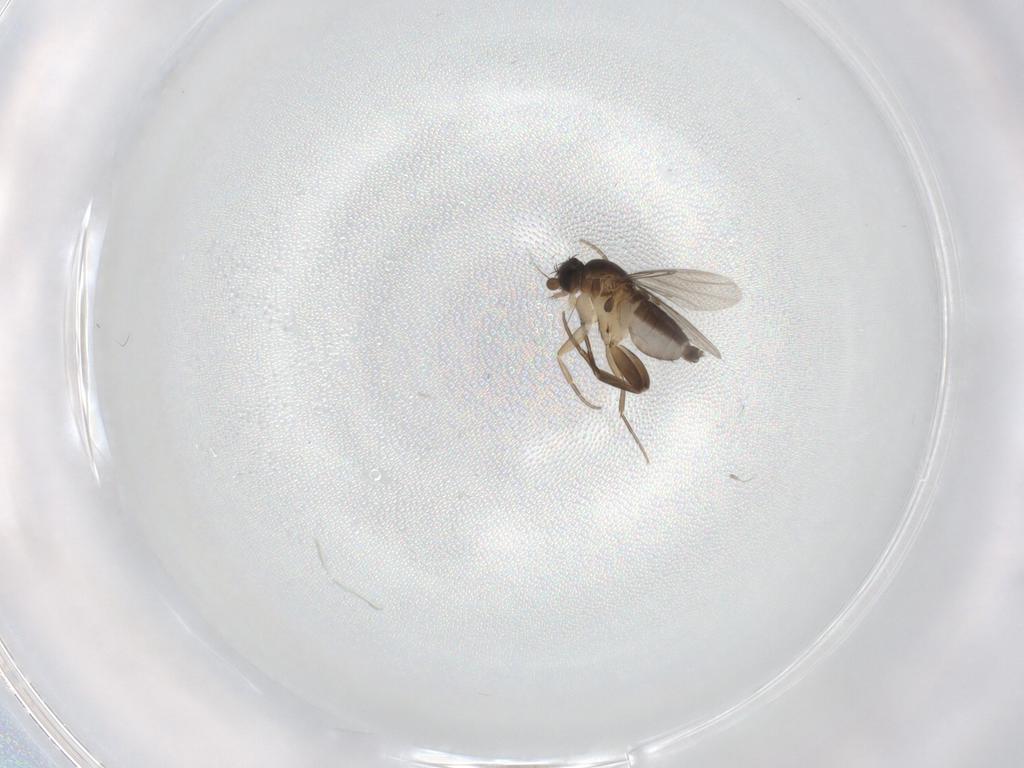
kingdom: Animalia
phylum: Arthropoda
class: Insecta
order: Diptera
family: Phoridae
